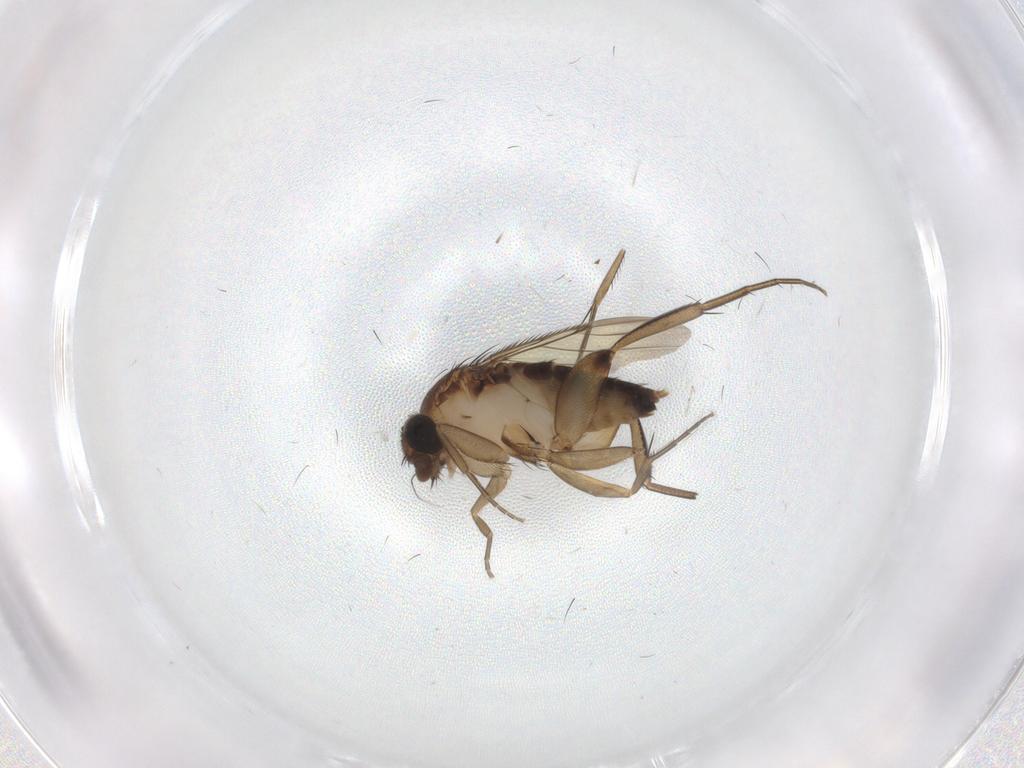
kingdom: Animalia
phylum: Arthropoda
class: Insecta
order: Diptera
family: Phoridae
